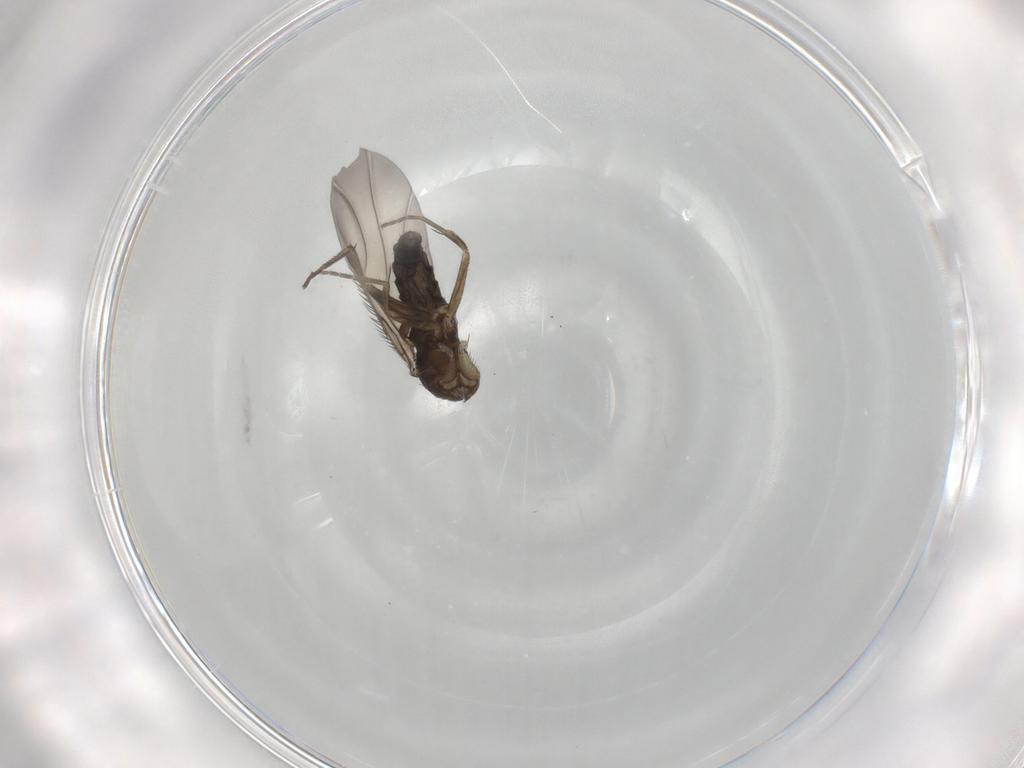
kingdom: Animalia
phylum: Arthropoda
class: Insecta
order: Diptera
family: Phoridae
